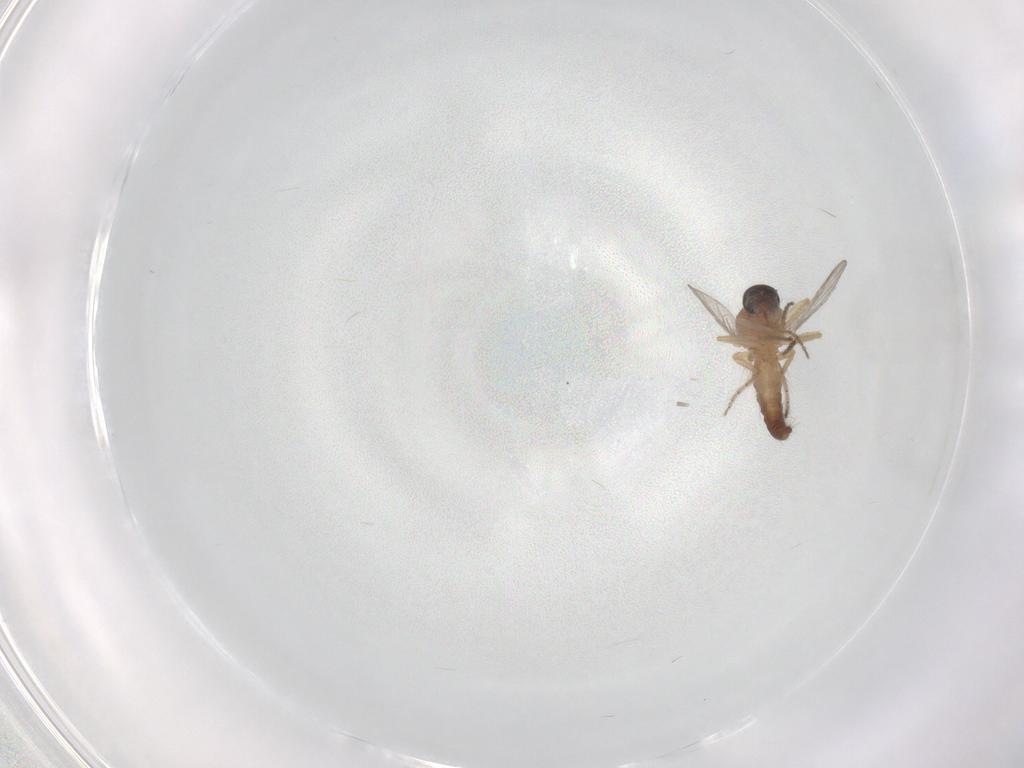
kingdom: Animalia
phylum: Arthropoda
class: Insecta
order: Diptera
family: Ceratopogonidae
